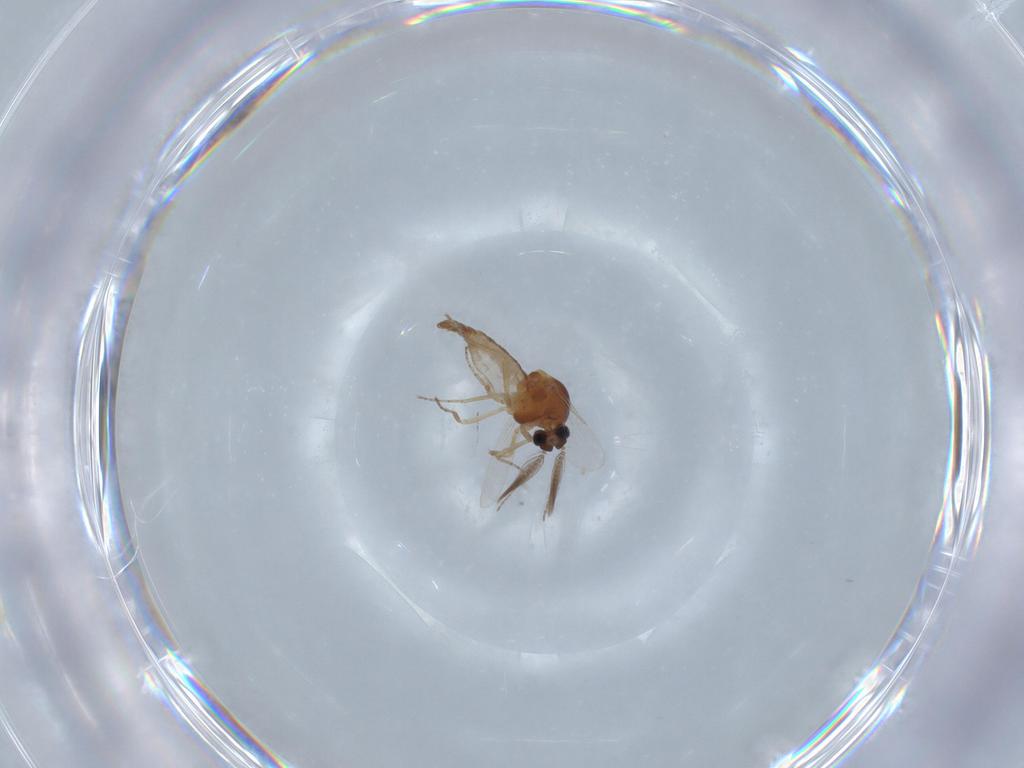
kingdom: Animalia
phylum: Arthropoda
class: Insecta
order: Diptera
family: Ceratopogonidae
